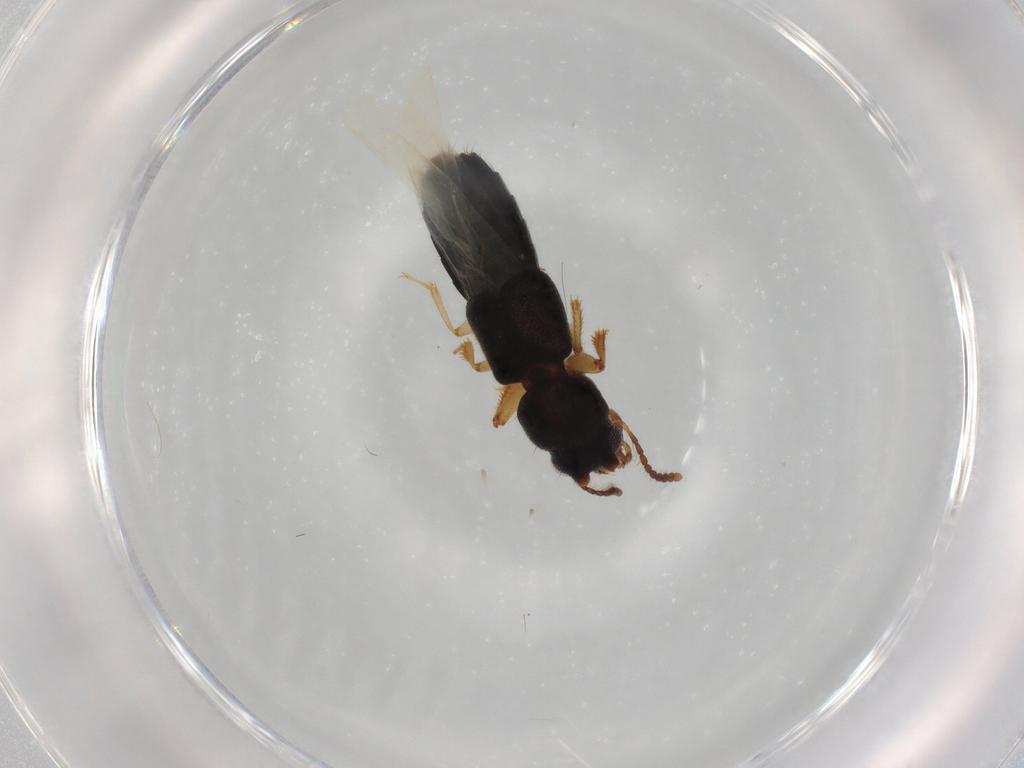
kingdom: Animalia
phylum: Arthropoda
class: Insecta
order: Coleoptera
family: Staphylinidae
